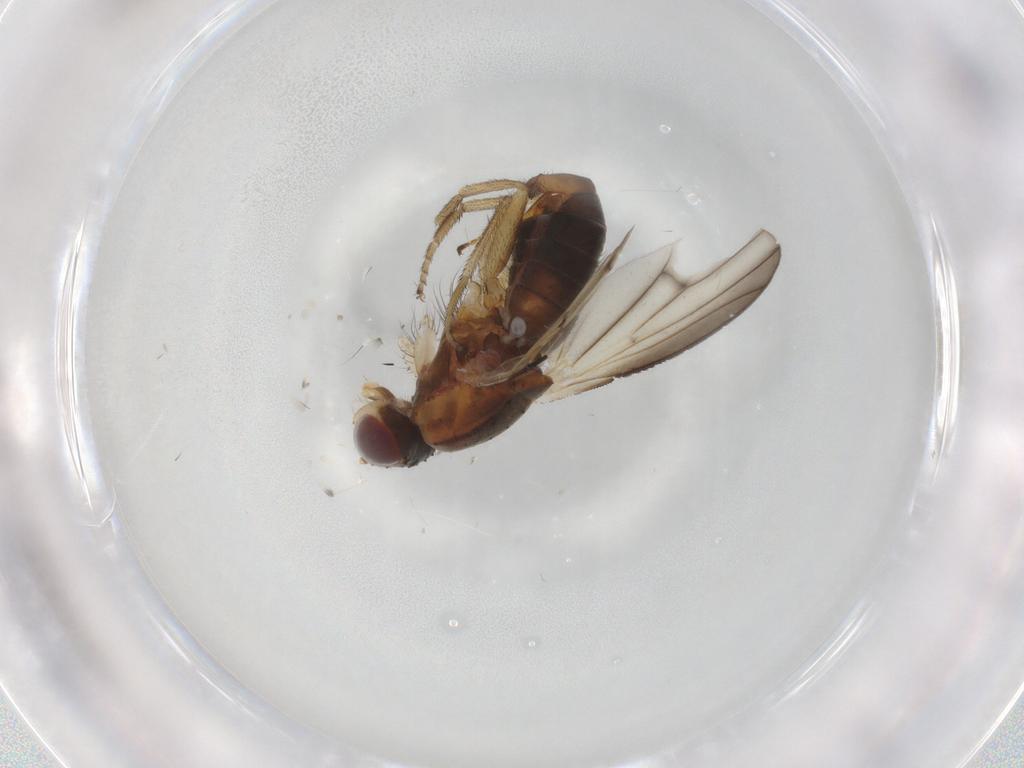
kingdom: Animalia
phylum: Arthropoda
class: Insecta
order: Diptera
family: Heleomyzidae
